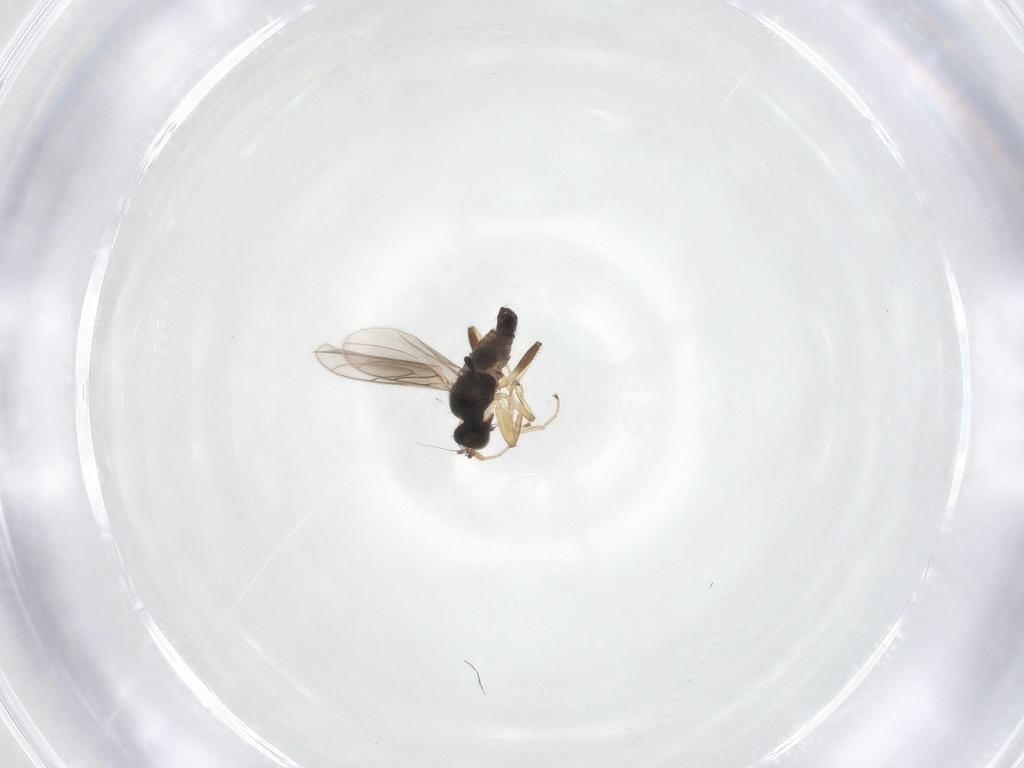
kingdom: Animalia
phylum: Arthropoda
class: Insecta
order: Diptera
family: Hybotidae
